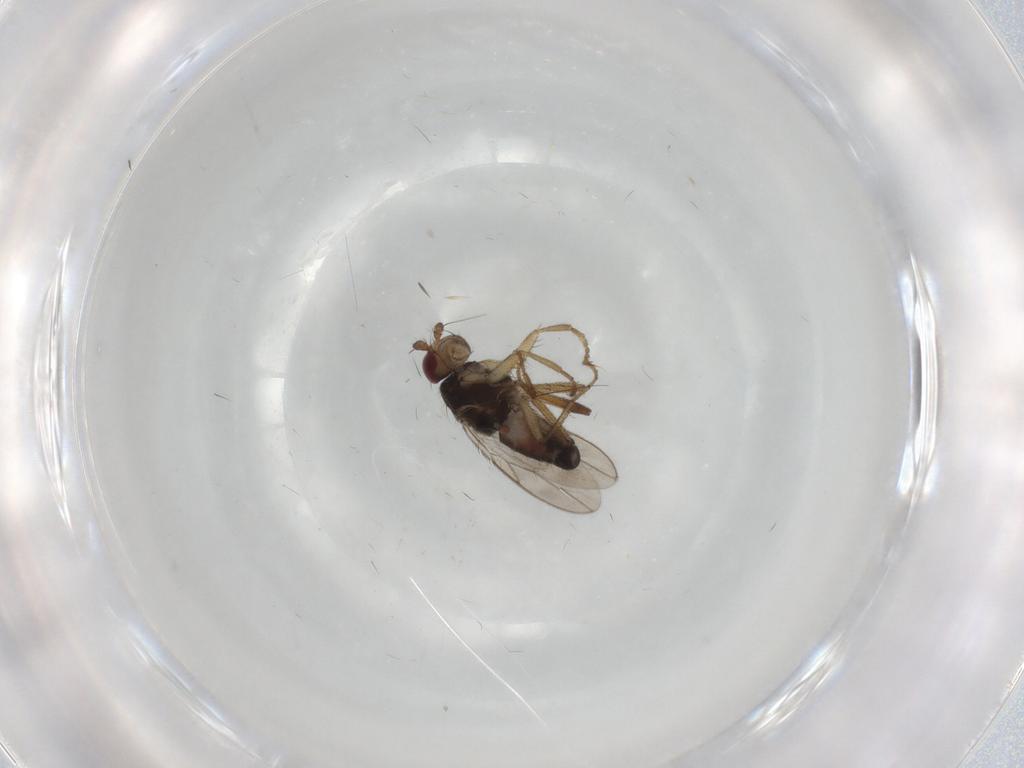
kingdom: Animalia
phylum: Arthropoda
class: Insecta
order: Diptera
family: Sphaeroceridae
